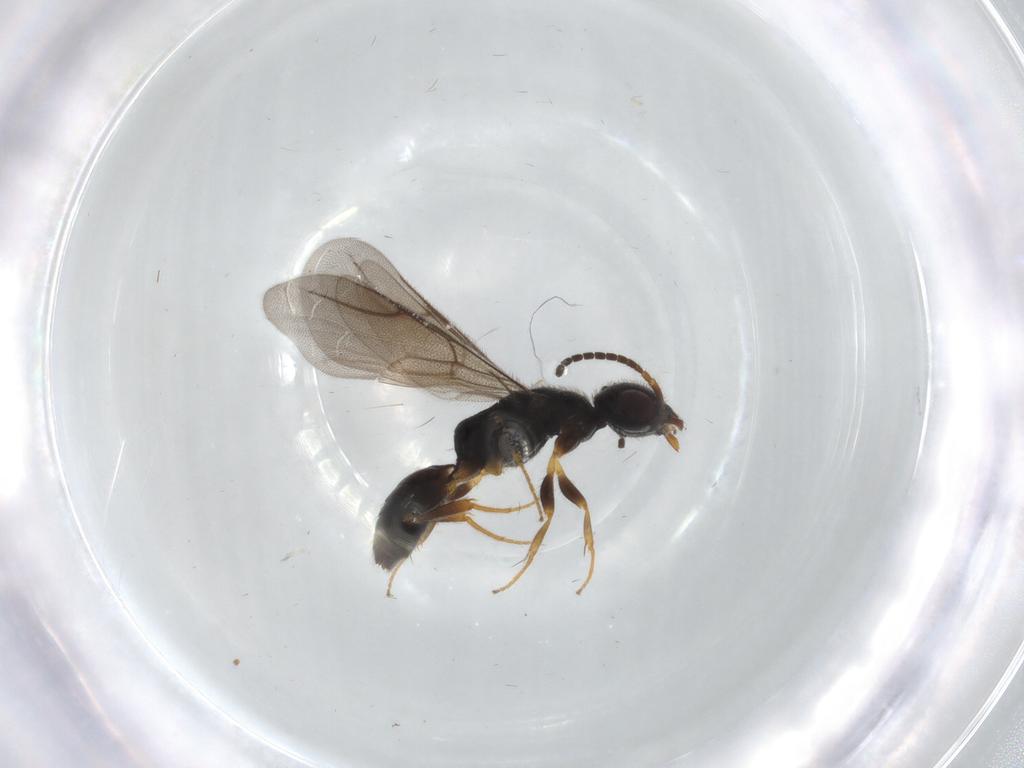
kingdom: Animalia
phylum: Arthropoda
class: Insecta
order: Hymenoptera
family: Bethylidae
